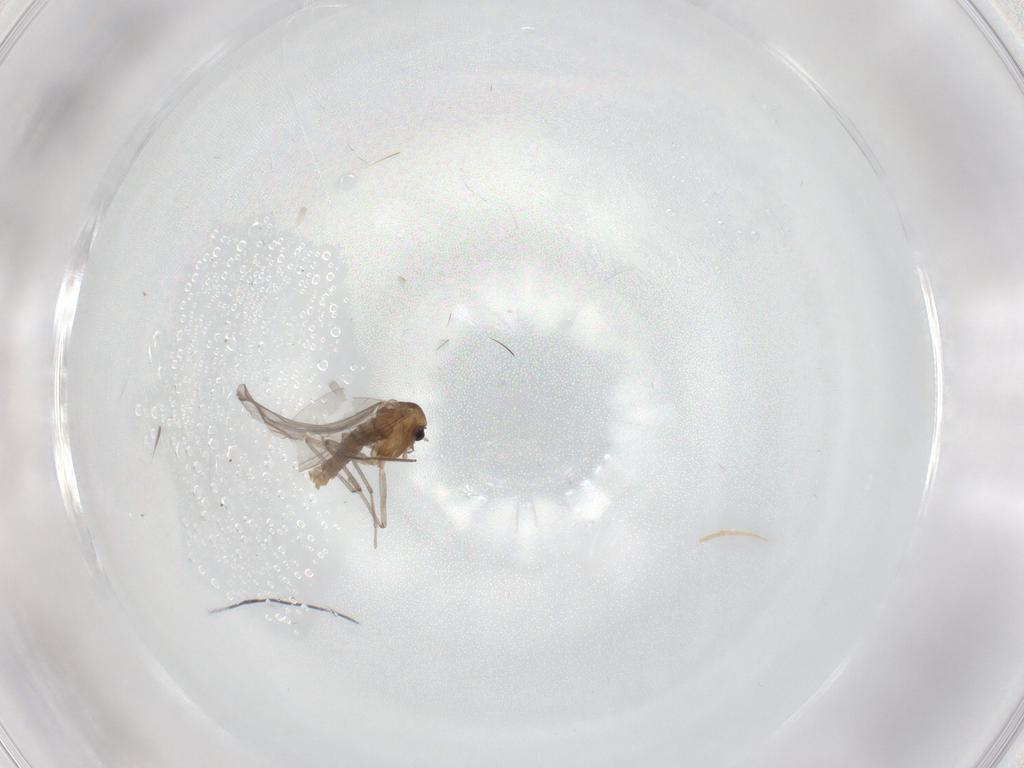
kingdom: Animalia
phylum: Arthropoda
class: Insecta
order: Diptera
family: Chironomidae
